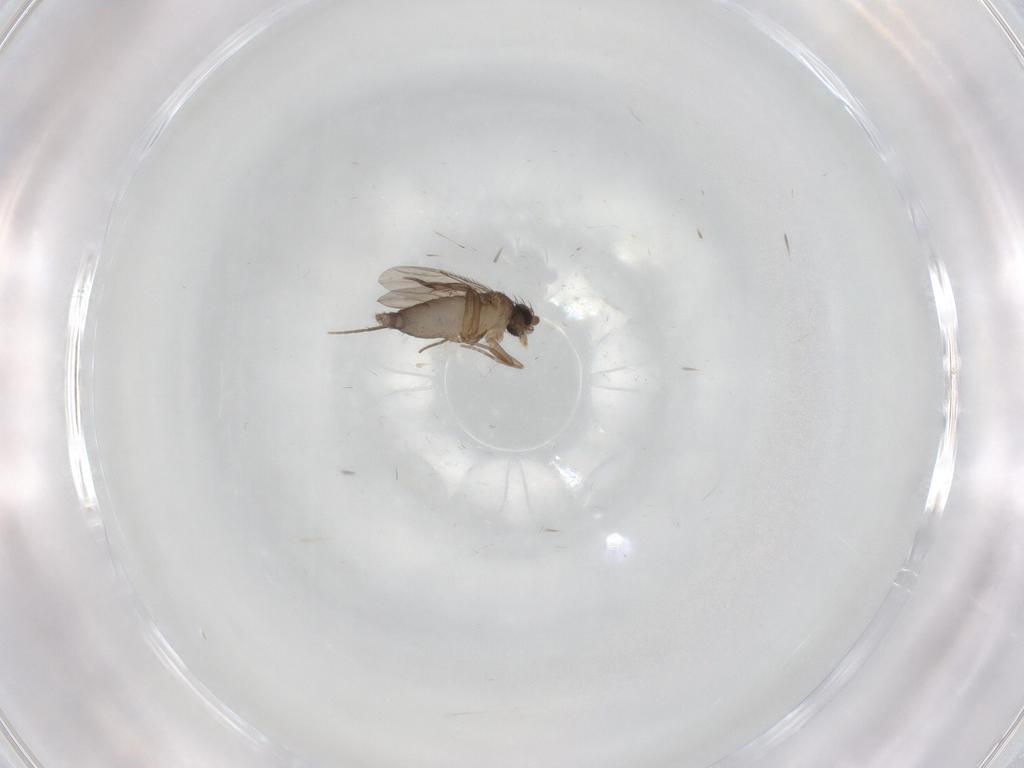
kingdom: Animalia
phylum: Arthropoda
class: Insecta
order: Diptera
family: Phoridae
